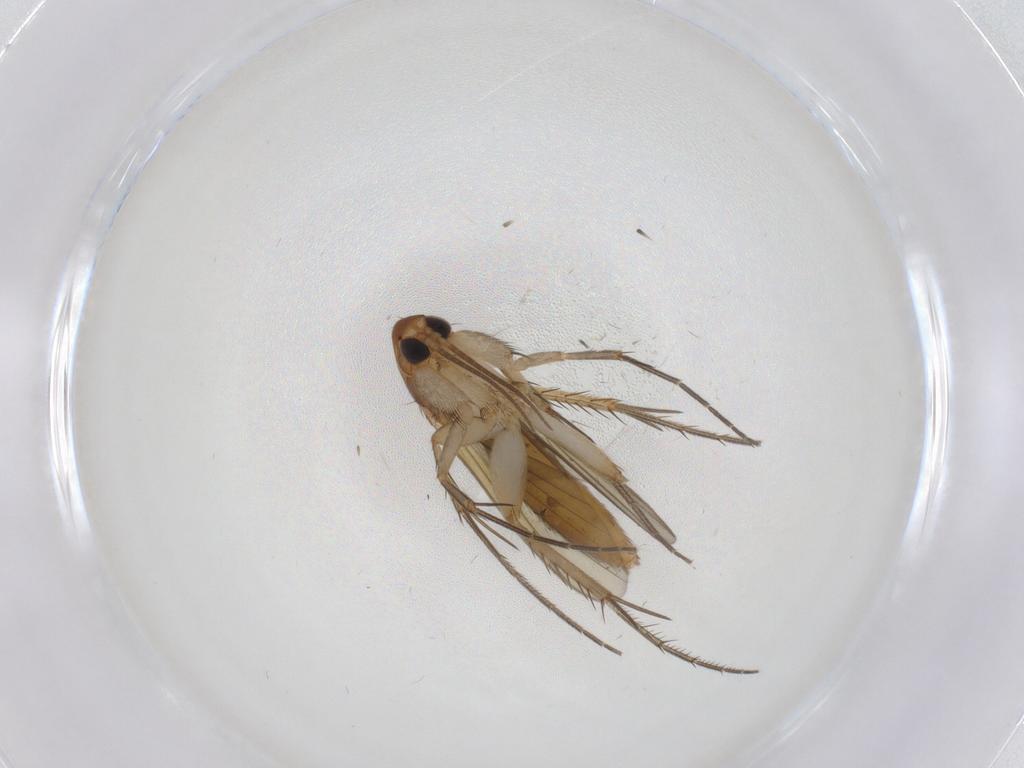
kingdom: Animalia
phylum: Arthropoda
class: Insecta
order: Diptera
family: Mycetophilidae
